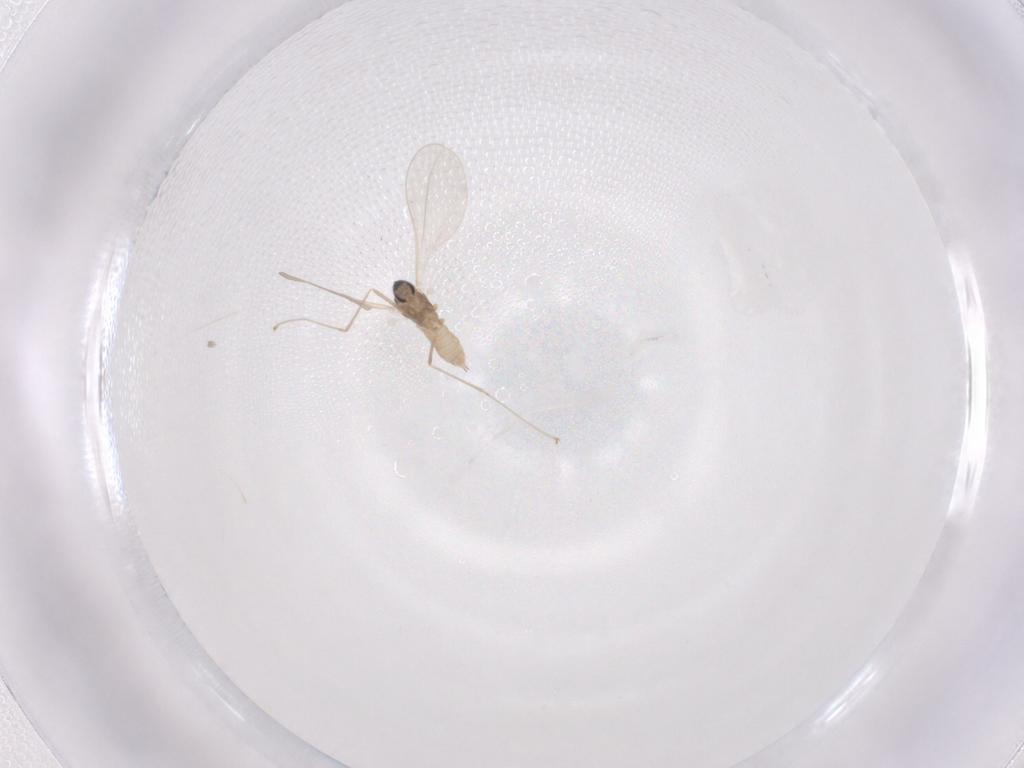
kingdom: Animalia
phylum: Arthropoda
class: Insecta
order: Diptera
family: Cecidomyiidae
